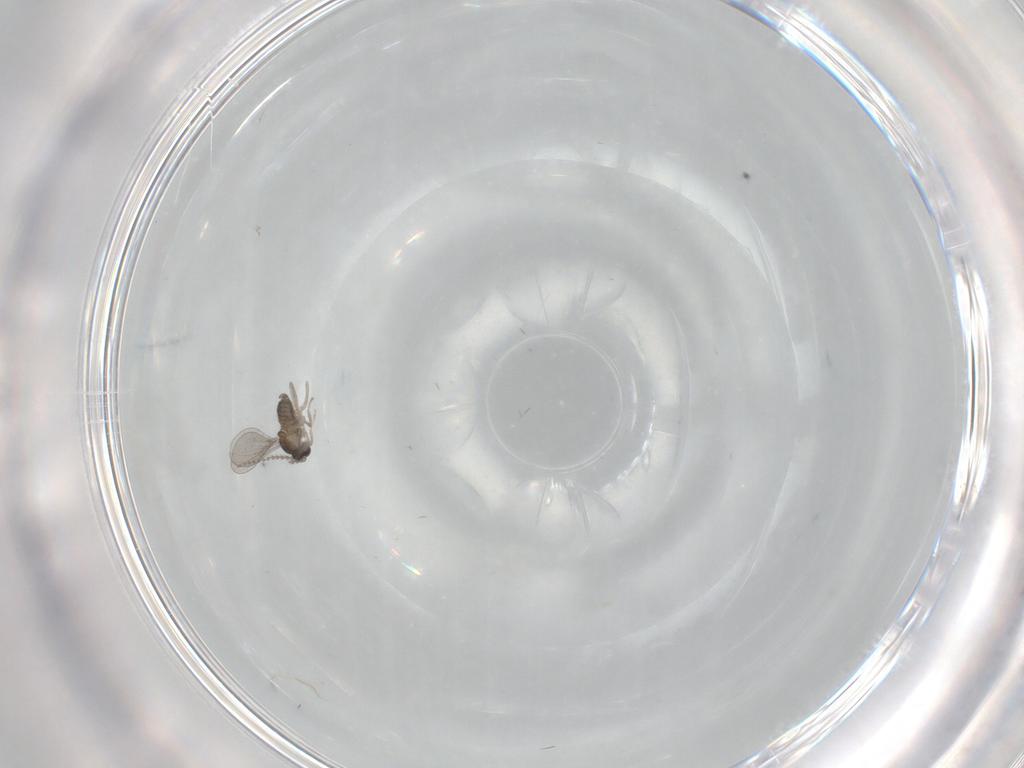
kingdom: Animalia
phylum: Arthropoda
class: Insecta
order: Diptera
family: Cecidomyiidae
